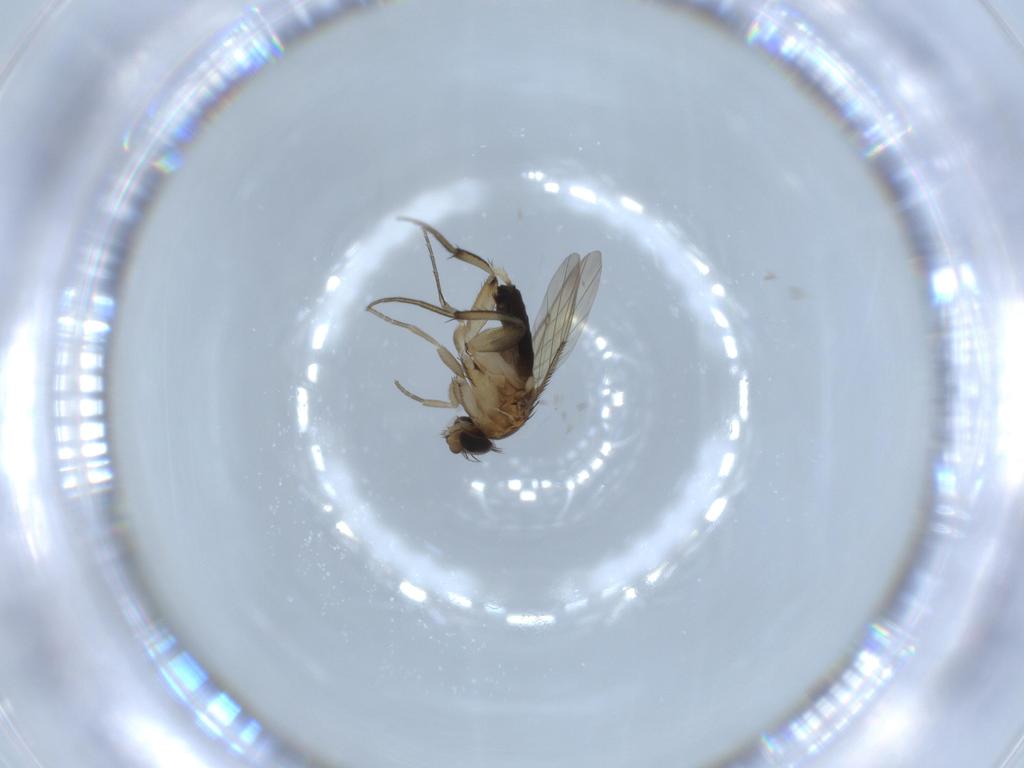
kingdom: Animalia
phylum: Arthropoda
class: Insecta
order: Diptera
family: Phoridae
